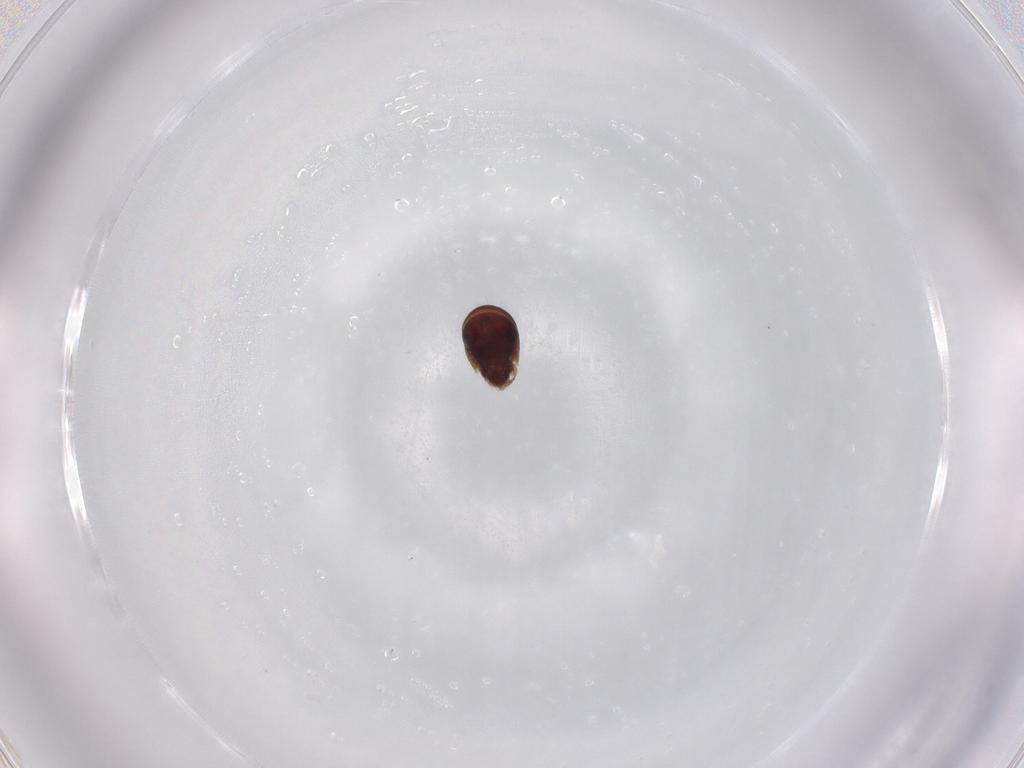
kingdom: Animalia
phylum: Arthropoda
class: Arachnida
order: Sarcoptiformes
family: Ceratozetidae
